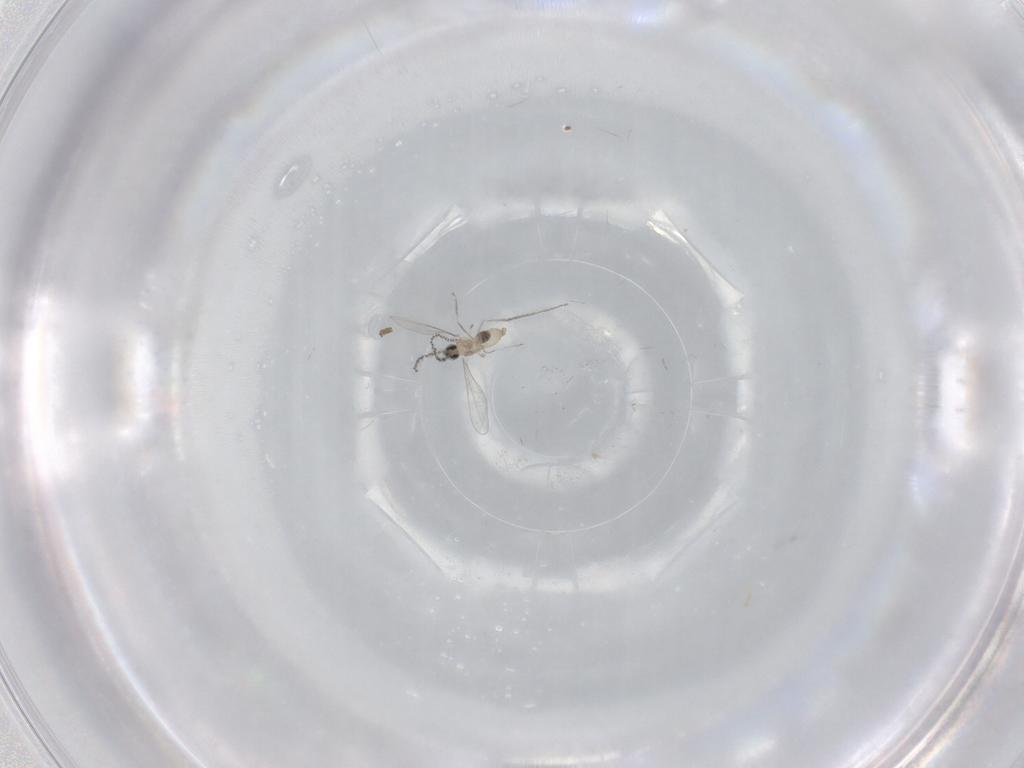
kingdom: Animalia
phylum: Arthropoda
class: Insecta
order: Diptera
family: Cecidomyiidae
